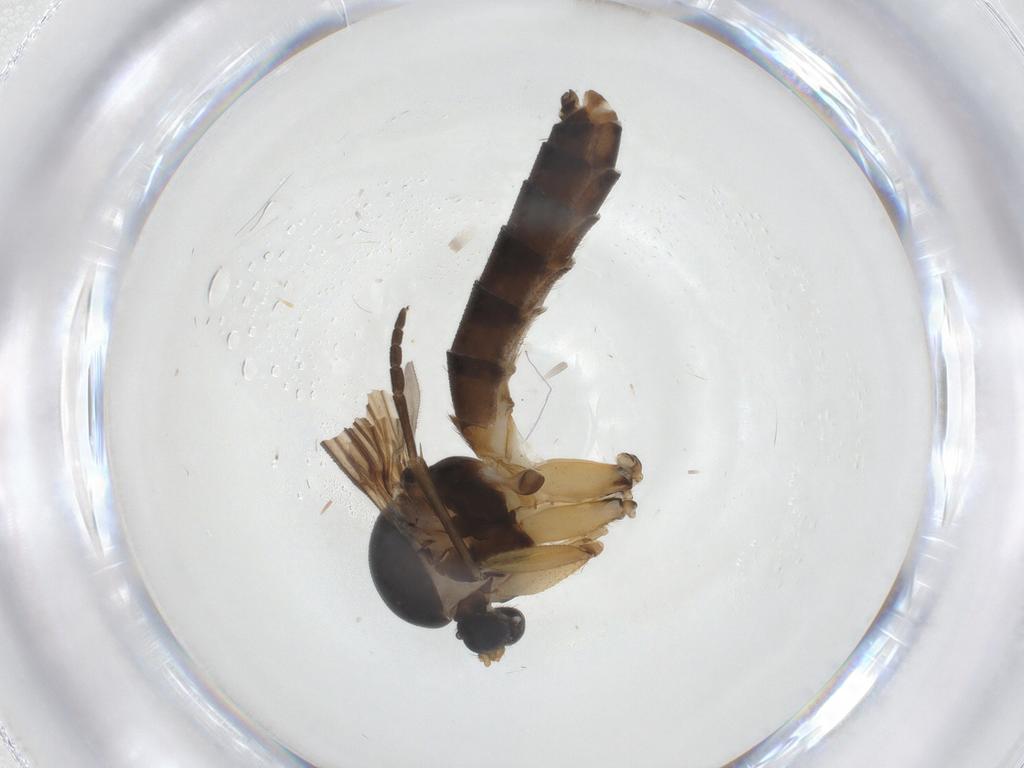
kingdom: Animalia
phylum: Arthropoda
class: Insecta
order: Diptera
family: Mycetophilidae
